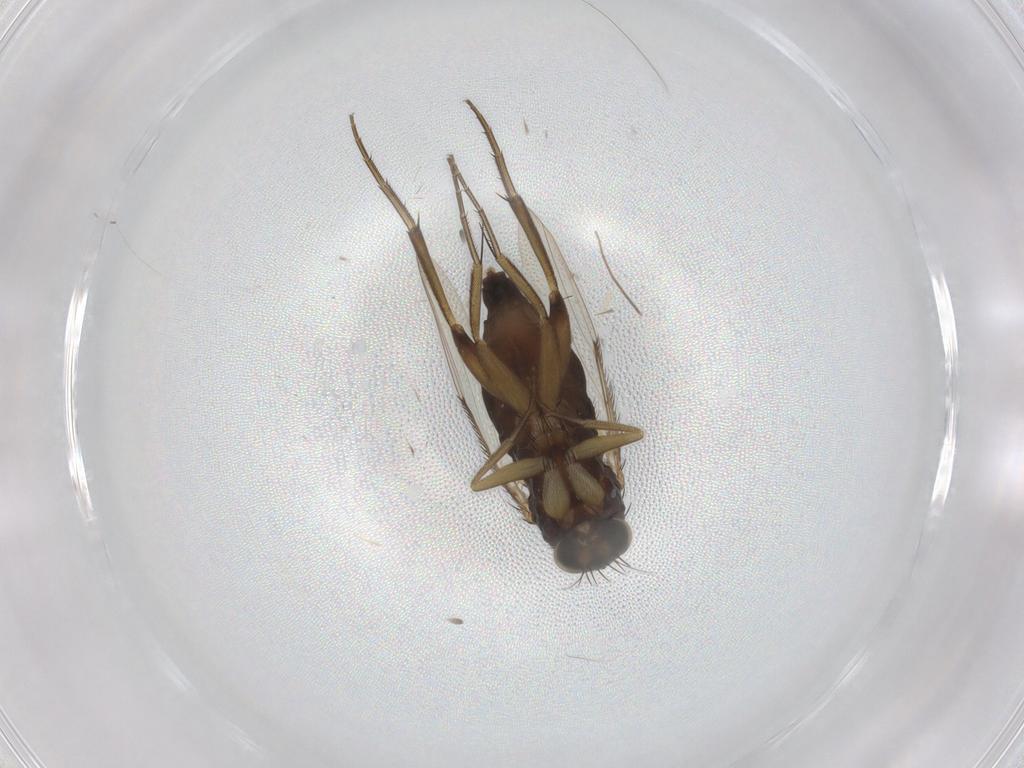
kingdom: Animalia
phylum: Arthropoda
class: Insecta
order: Diptera
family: Phoridae
